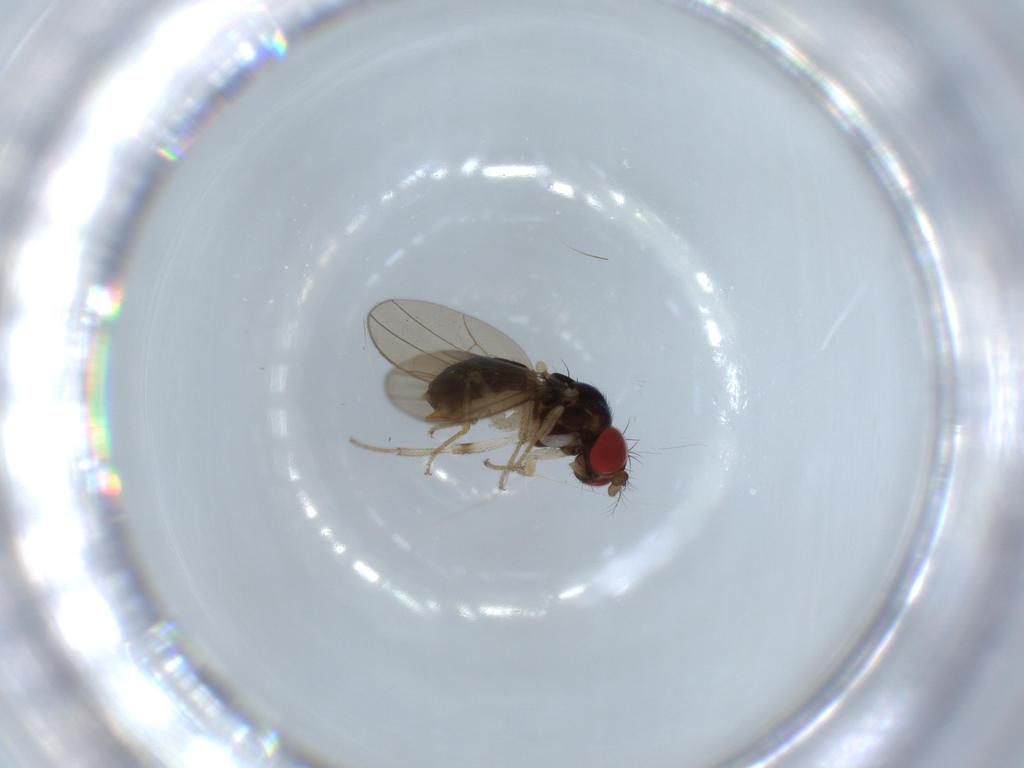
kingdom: Animalia
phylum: Arthropoda
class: Insecta
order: Diptera
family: Drosophilidae
